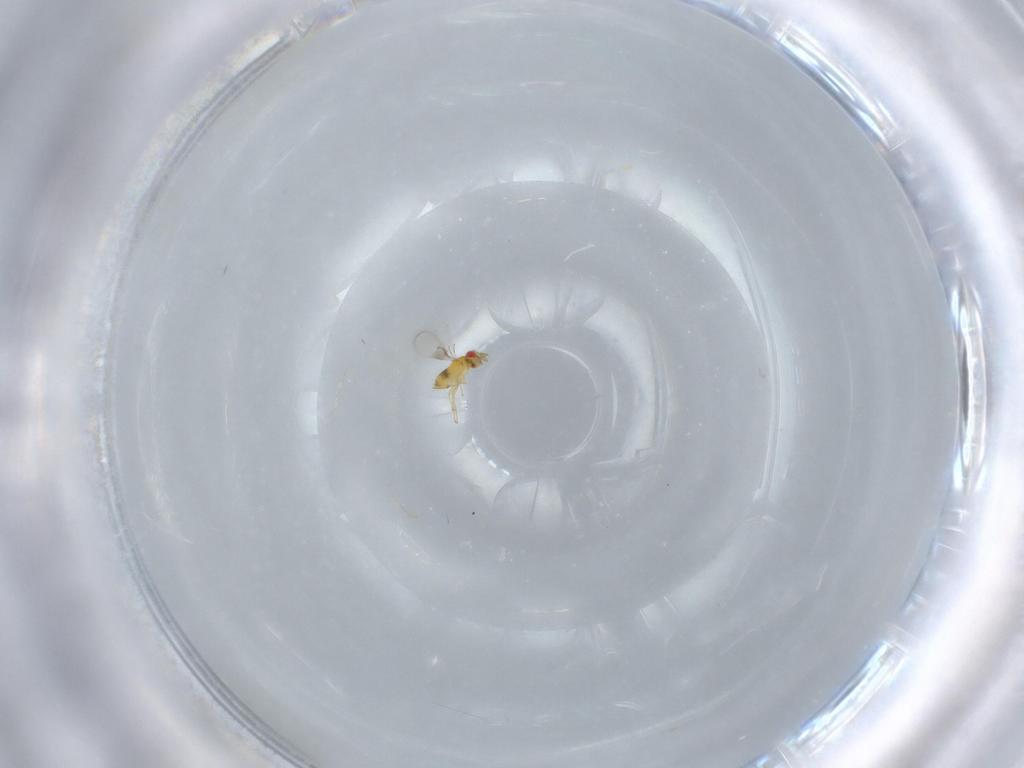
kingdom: Animalia
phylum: Arthropoda
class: Insecta
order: Hymenoptera
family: Trichogrammatidae
